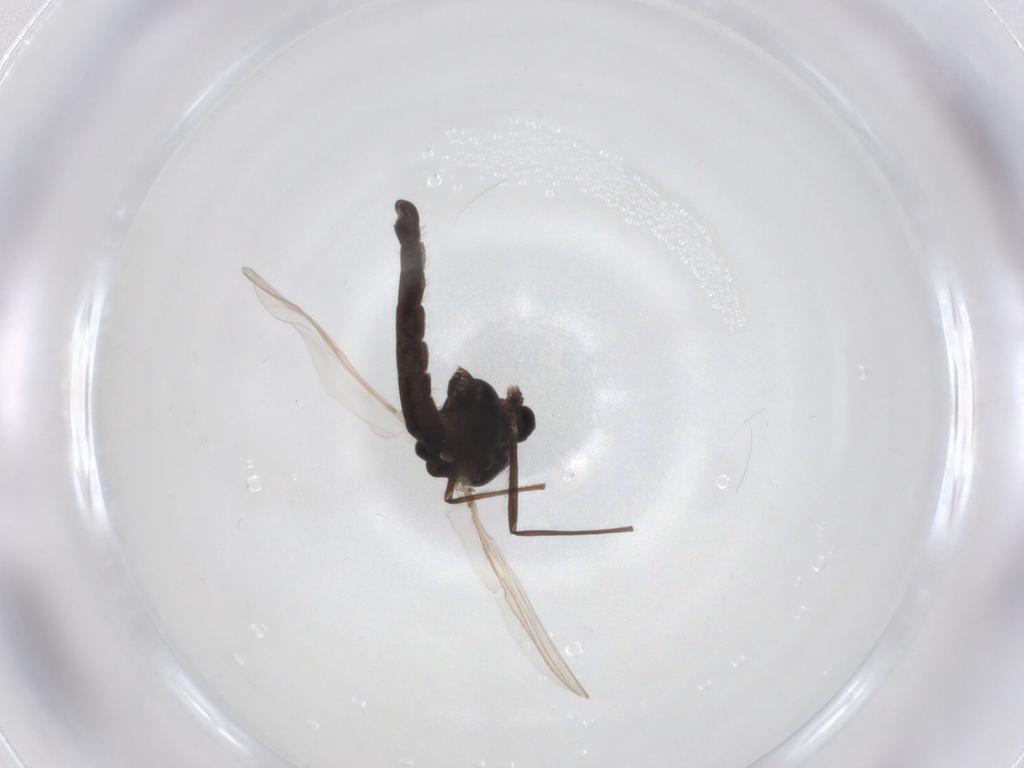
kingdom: Animalia
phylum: Arthropoda
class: Insecta
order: Diptera
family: Chironomidae
